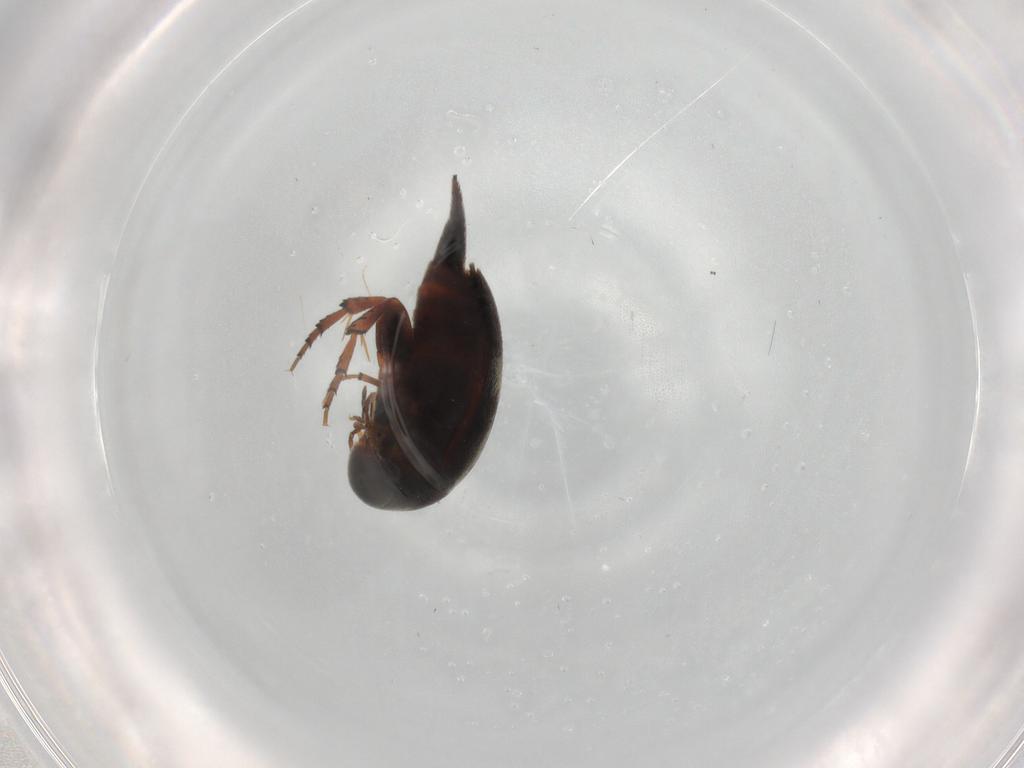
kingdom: Animalia
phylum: Arthropoda
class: Insecta
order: Coleoptera
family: Mordellidae
